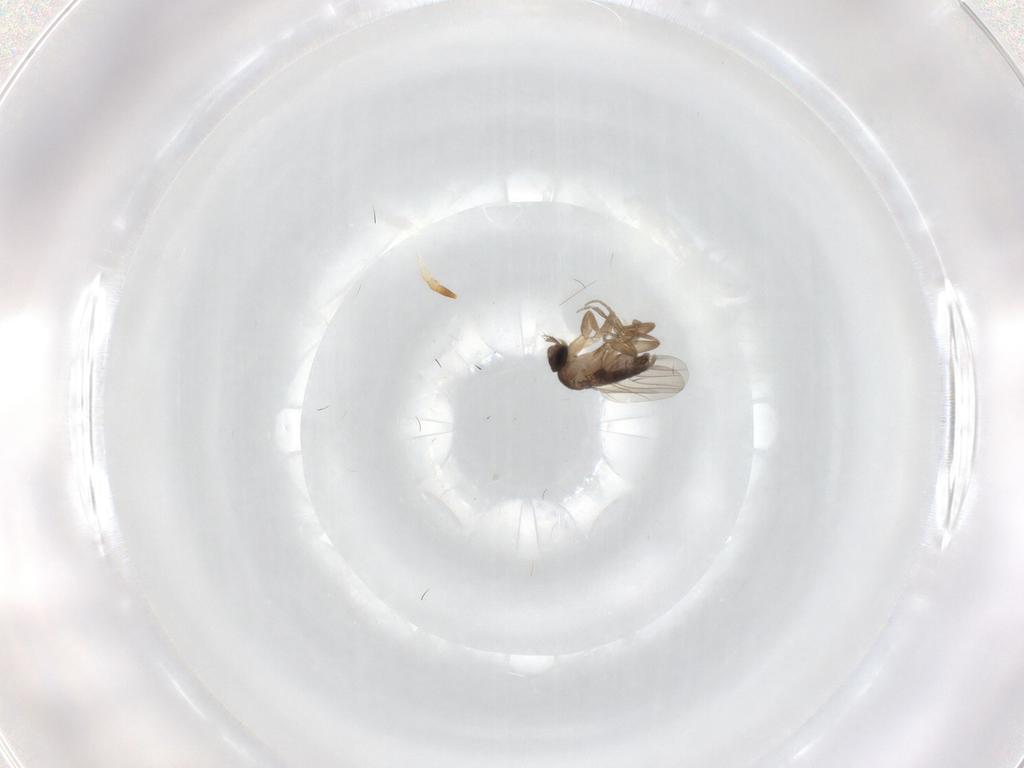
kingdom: Animalia
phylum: Arthropoda
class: Insecta
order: Diptera
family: Phoridae
